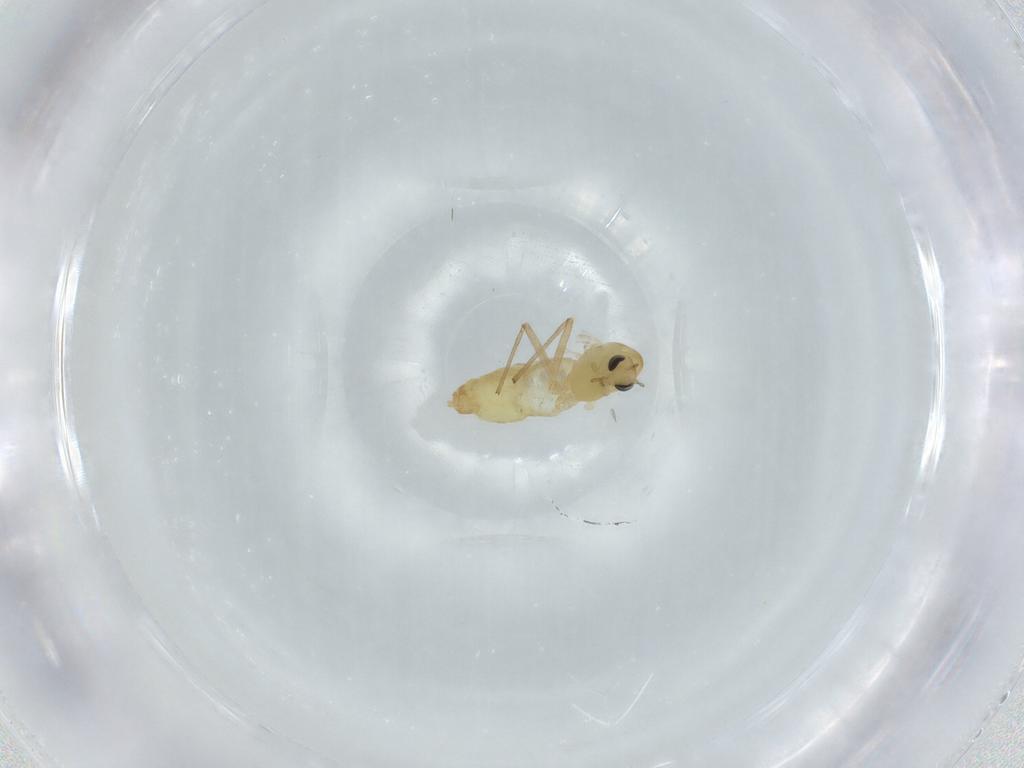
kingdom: Animalia
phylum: Arthropoda
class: Insecta
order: Diptera
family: Chironomidae
